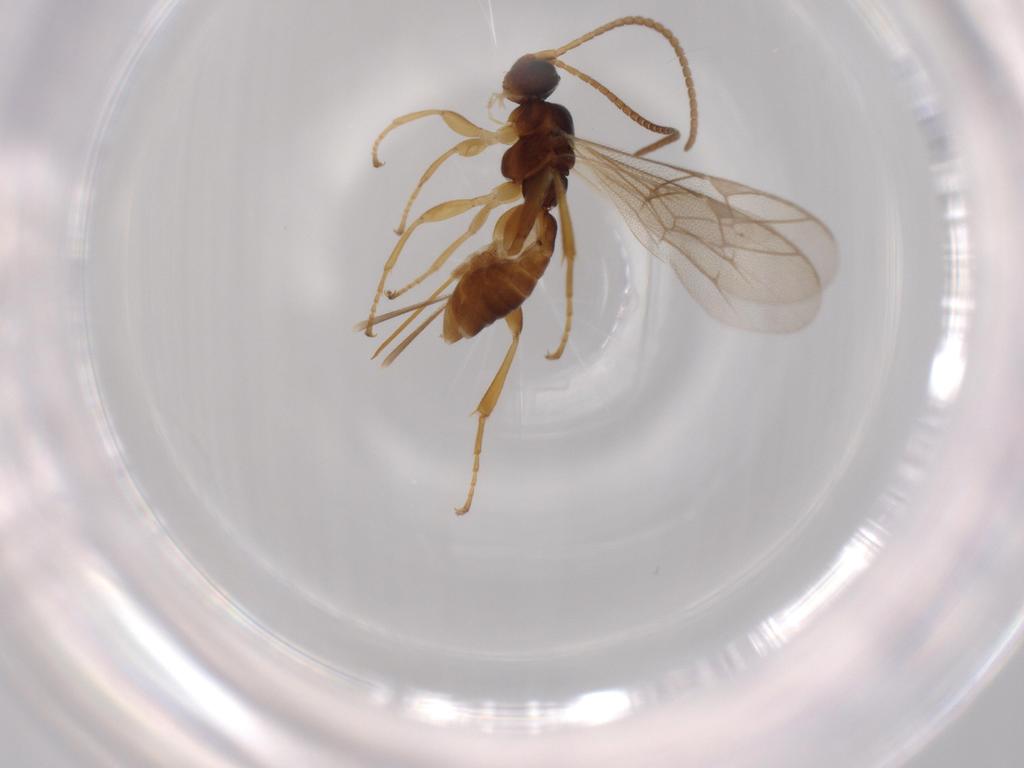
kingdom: Animalia
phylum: Arthropoda
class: Insecta
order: Hymenoptera
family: Ichneumonidae
